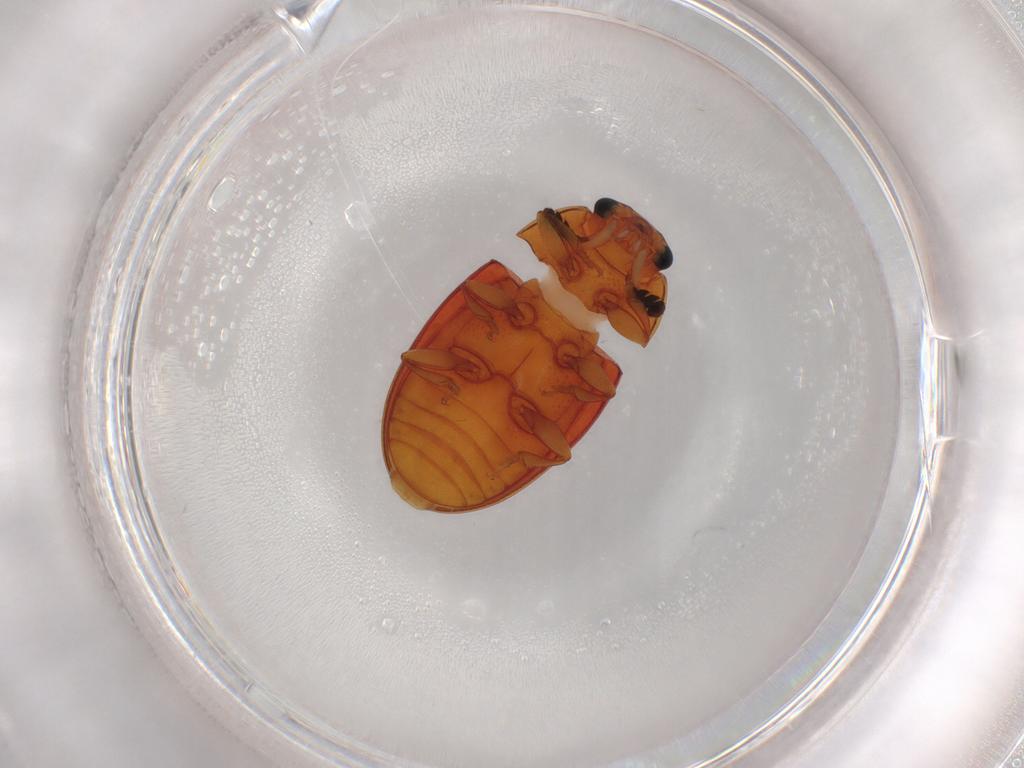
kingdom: Animalia
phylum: Arthropoda
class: Insecta
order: Coleoptera
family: Erotylidae
